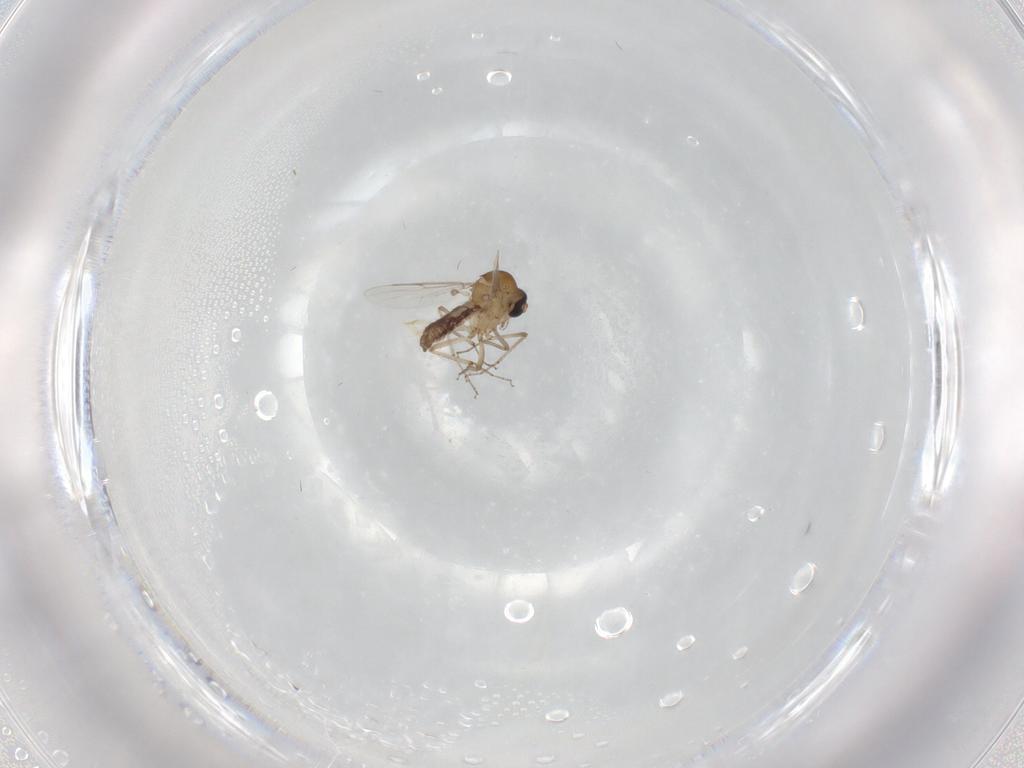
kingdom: Animalia
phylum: Arthropoda
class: Insecta
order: Diptera
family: Ceratopogonidae
